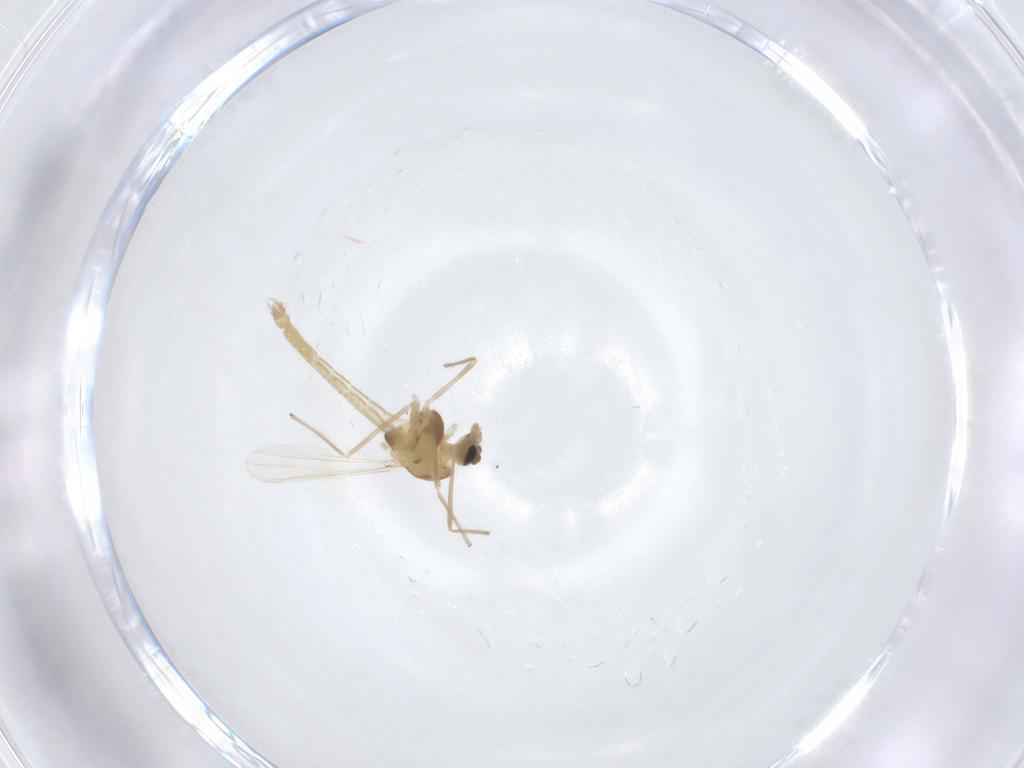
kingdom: Animalia
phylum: Arthropoda
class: Insecta
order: Diptera
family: Chironomidae
